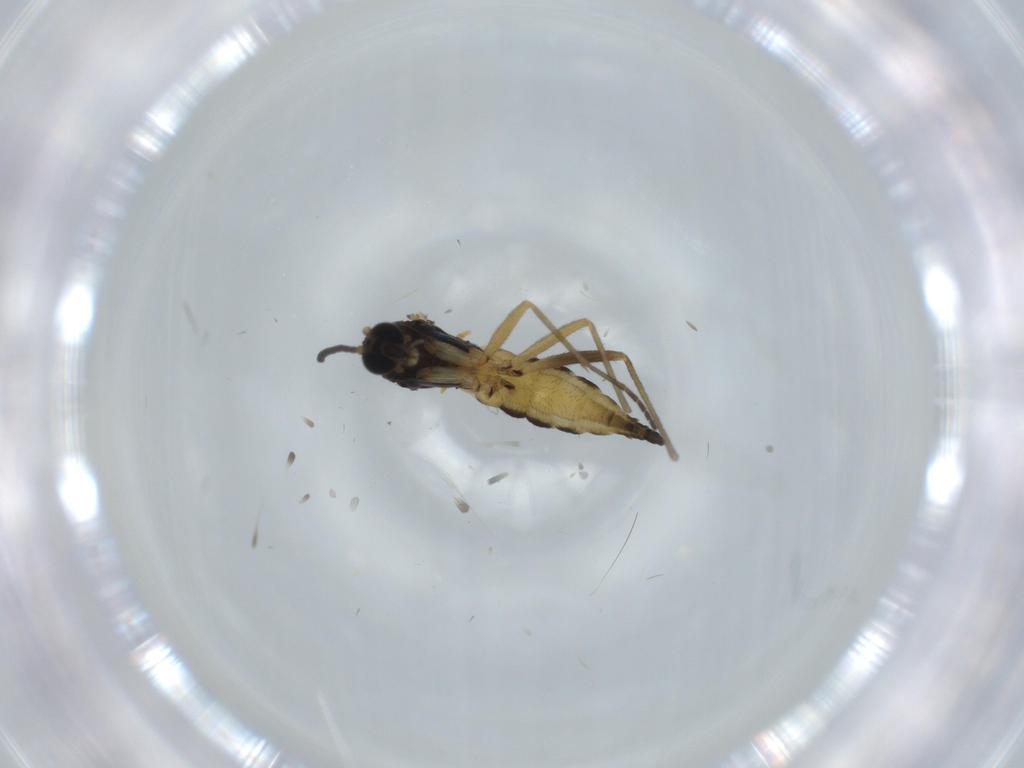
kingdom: Animalia
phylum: Arthropoda
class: Insecta
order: Diptera
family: Sphaeroceridae
